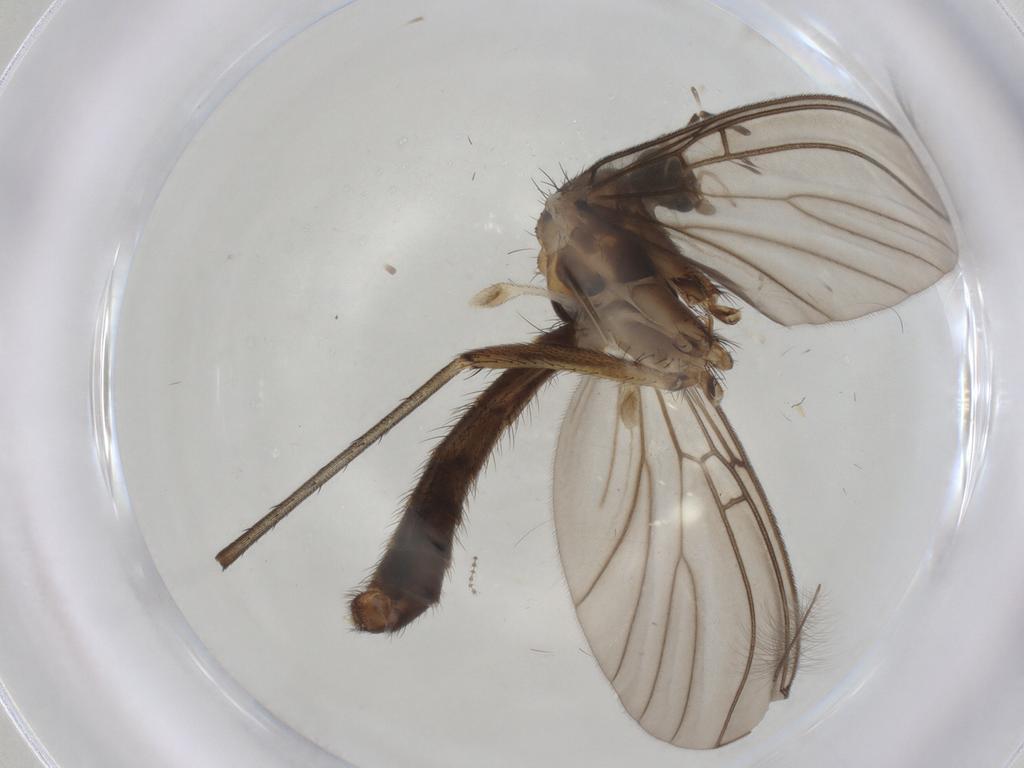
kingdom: Animalia
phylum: Arthropoda
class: Insecta
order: Diptera
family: Mycetophilidae
